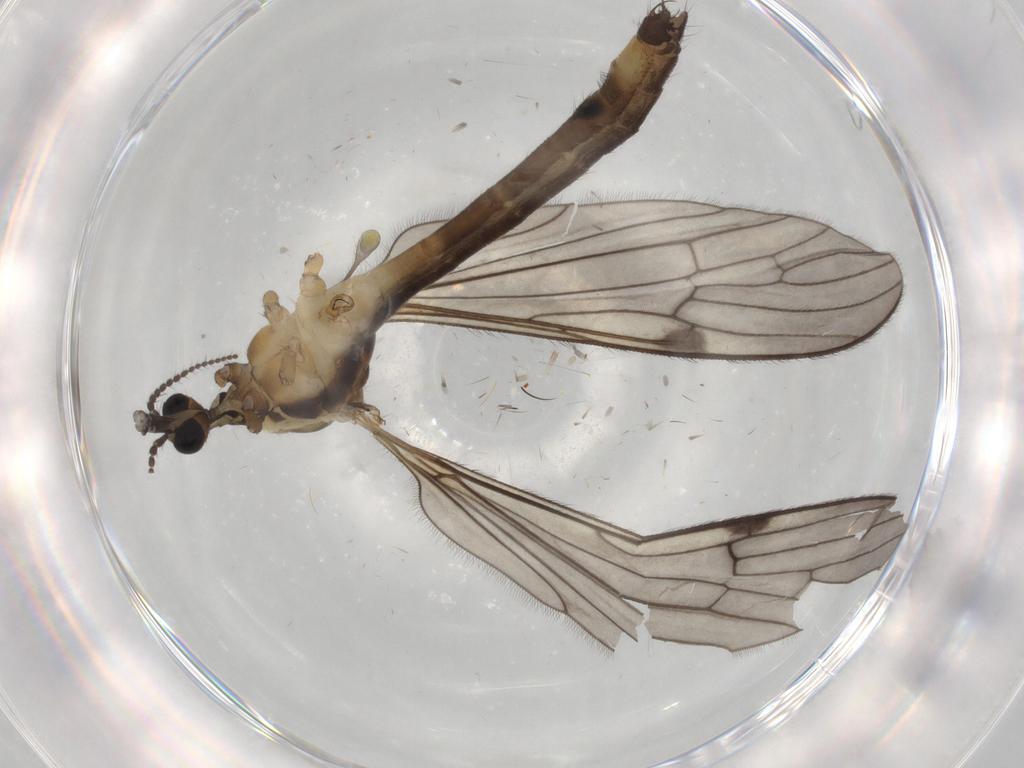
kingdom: Animalia
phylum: Arthropoda
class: Insecta
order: Diptera
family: Limoniidae
